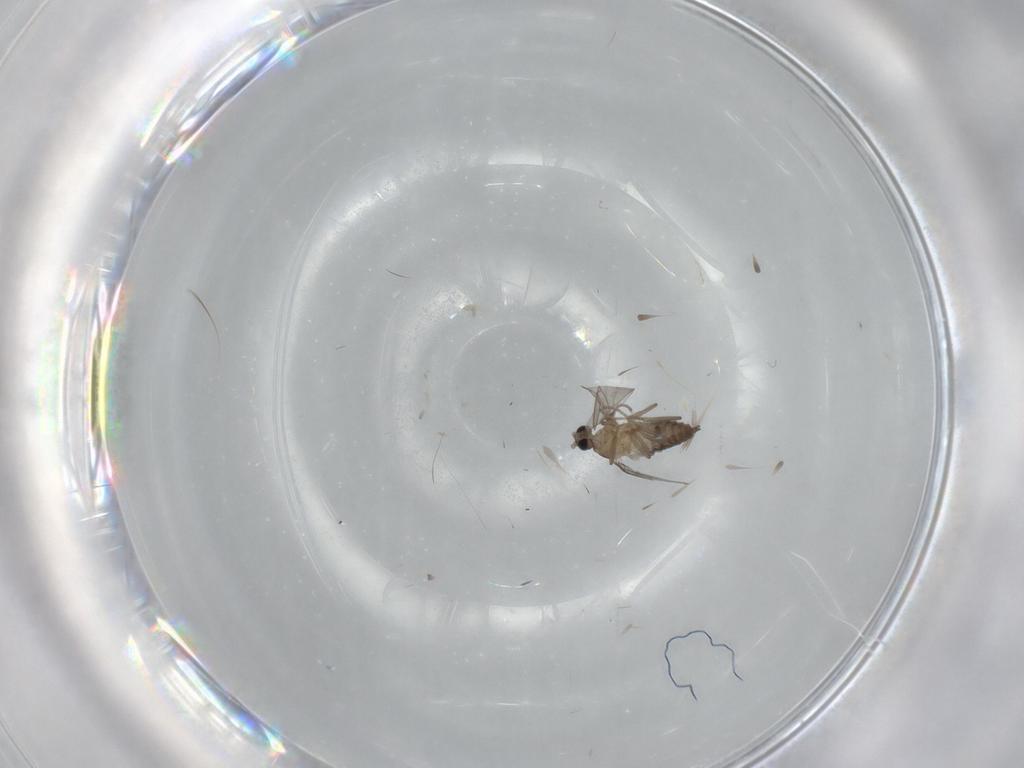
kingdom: Animalia
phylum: Arthropoda
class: Insecta
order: Diptera
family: Cecidomyiidae
